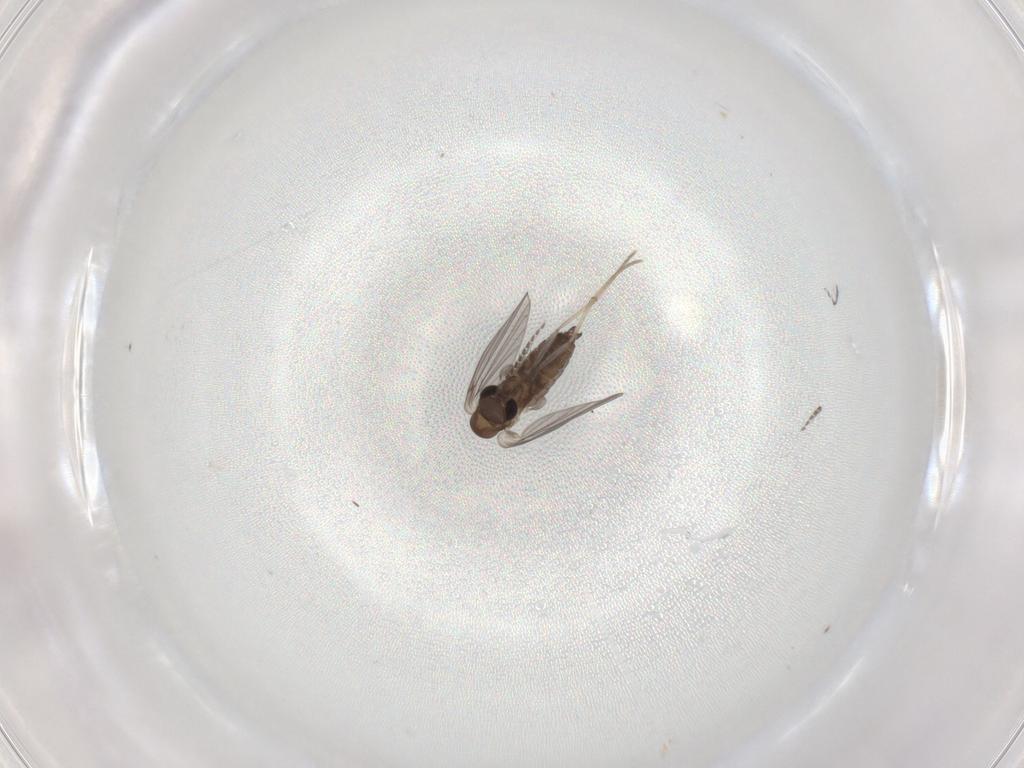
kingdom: Animalia
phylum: Arthropoda
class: Insecta
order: Diptera
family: Psychodidae
